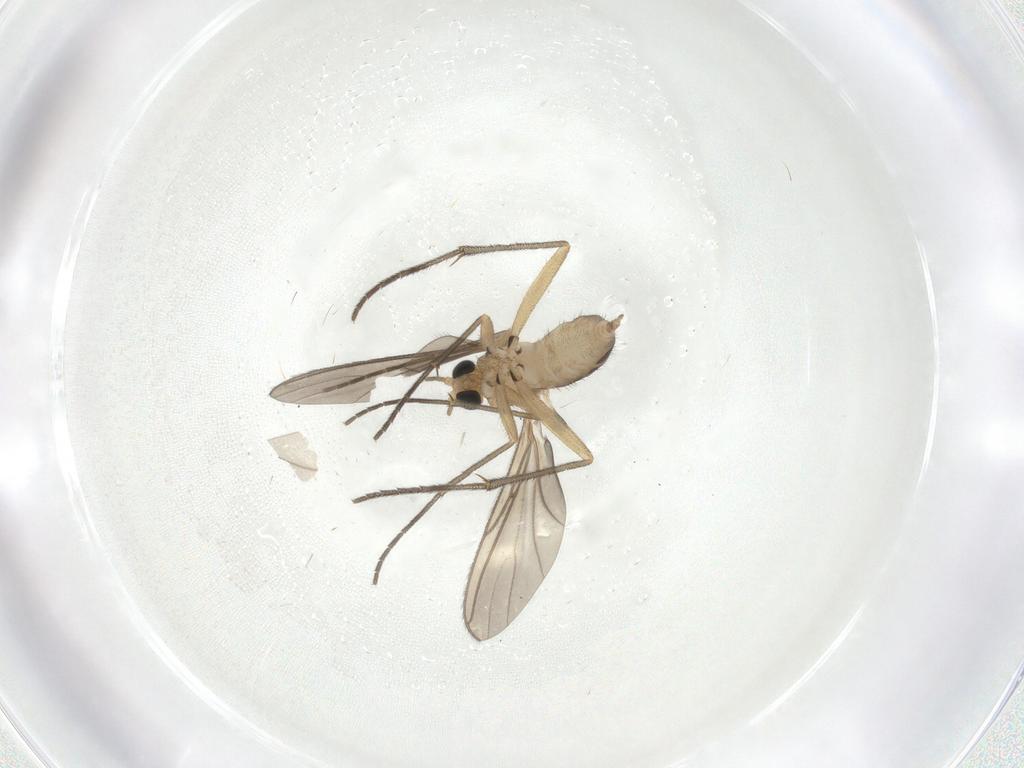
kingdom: Animalia
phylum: Arthropoda
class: Insecta
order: Diptera
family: Sciaridae
